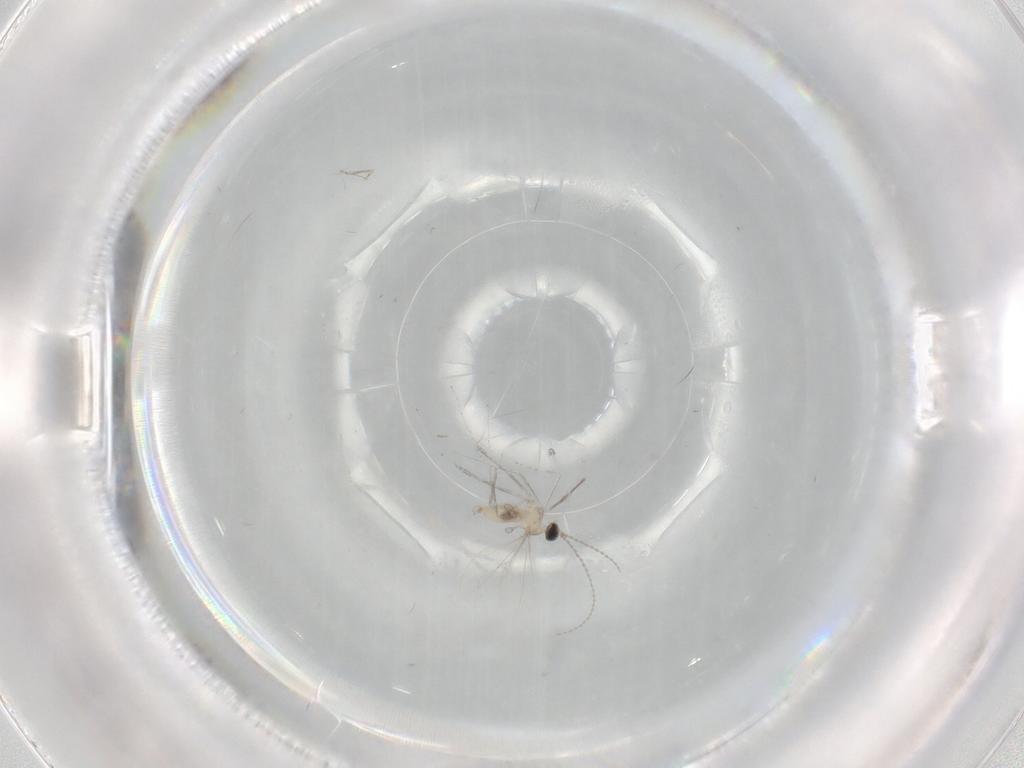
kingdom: Animalia
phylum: Arthropoda
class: Insecta
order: Diptera
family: Cecidomyiidae
